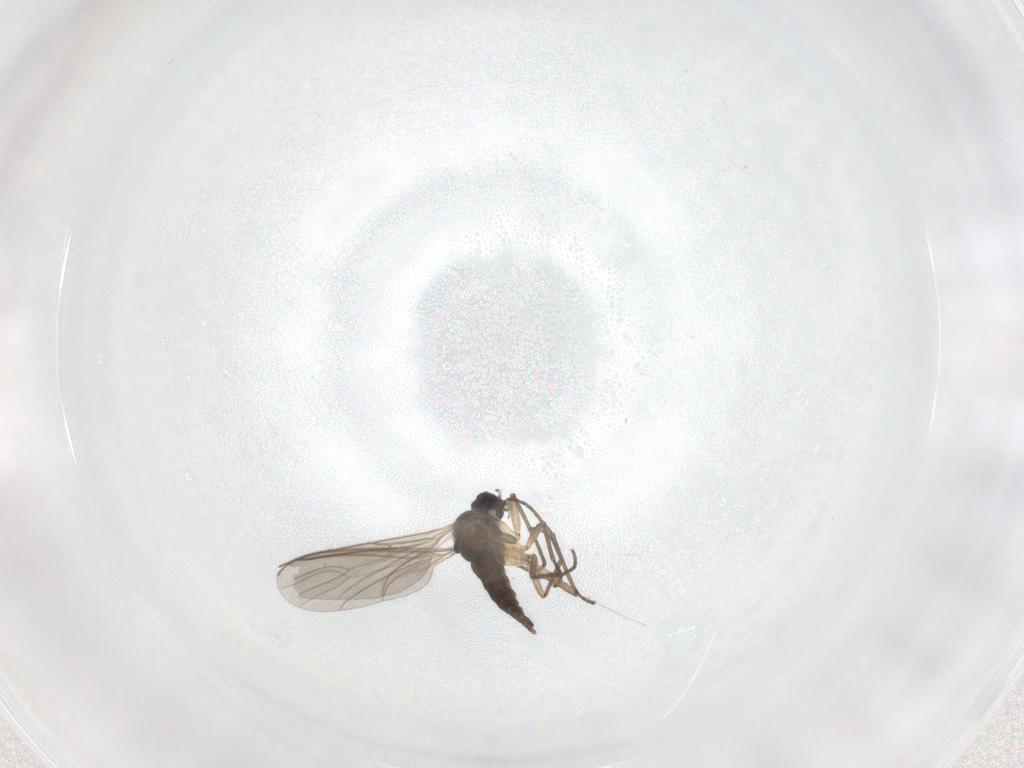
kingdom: Animalia
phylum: Arthropoda
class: Insecta
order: Diptera
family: Sciaridae
